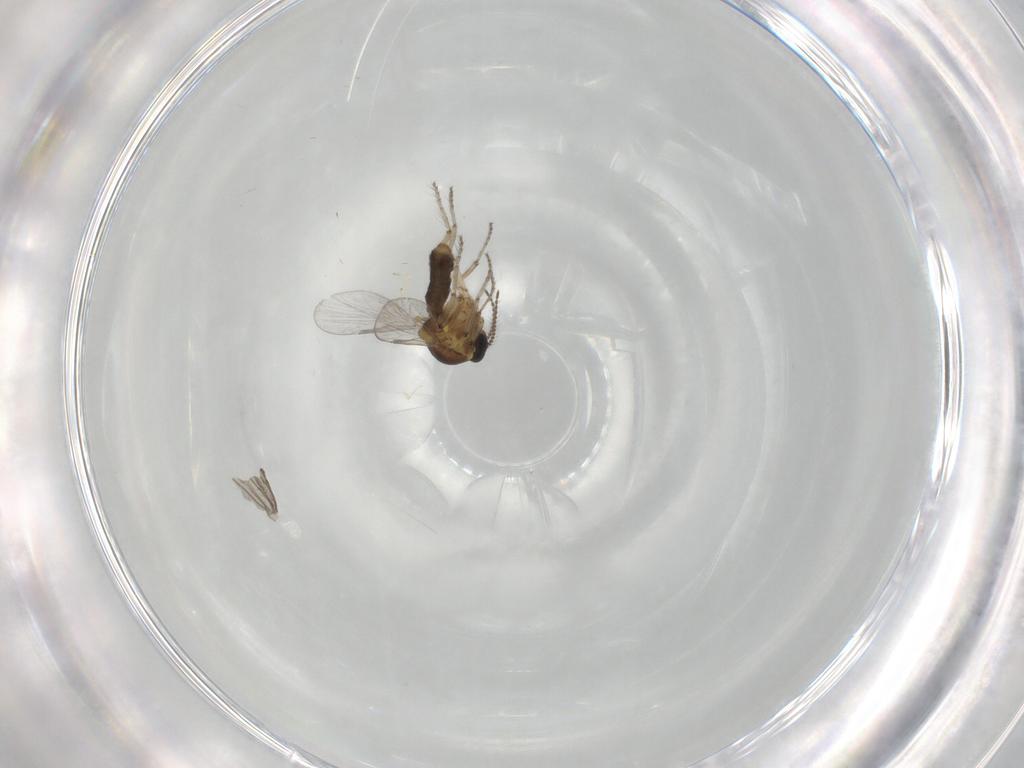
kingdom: Animalia
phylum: Arthropoda
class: Insecta
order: Diptera
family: Ceratopogonidae
